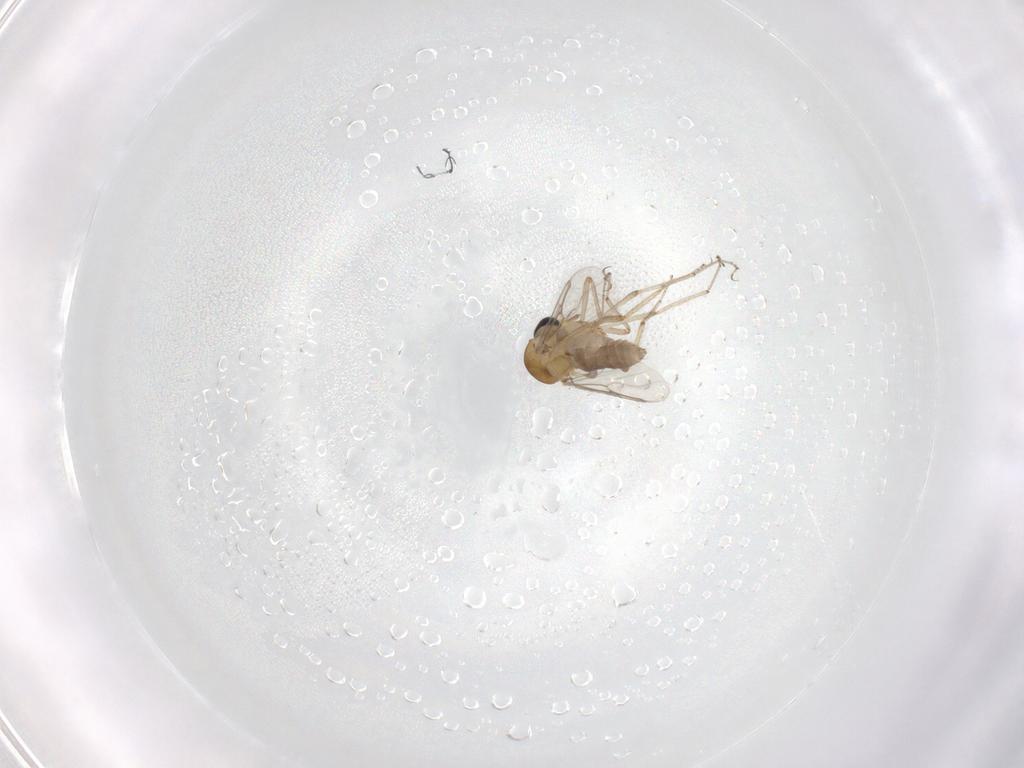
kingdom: Animalia
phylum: Arthropoda
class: Insecta
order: Diptera
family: Ceratopogonidae
